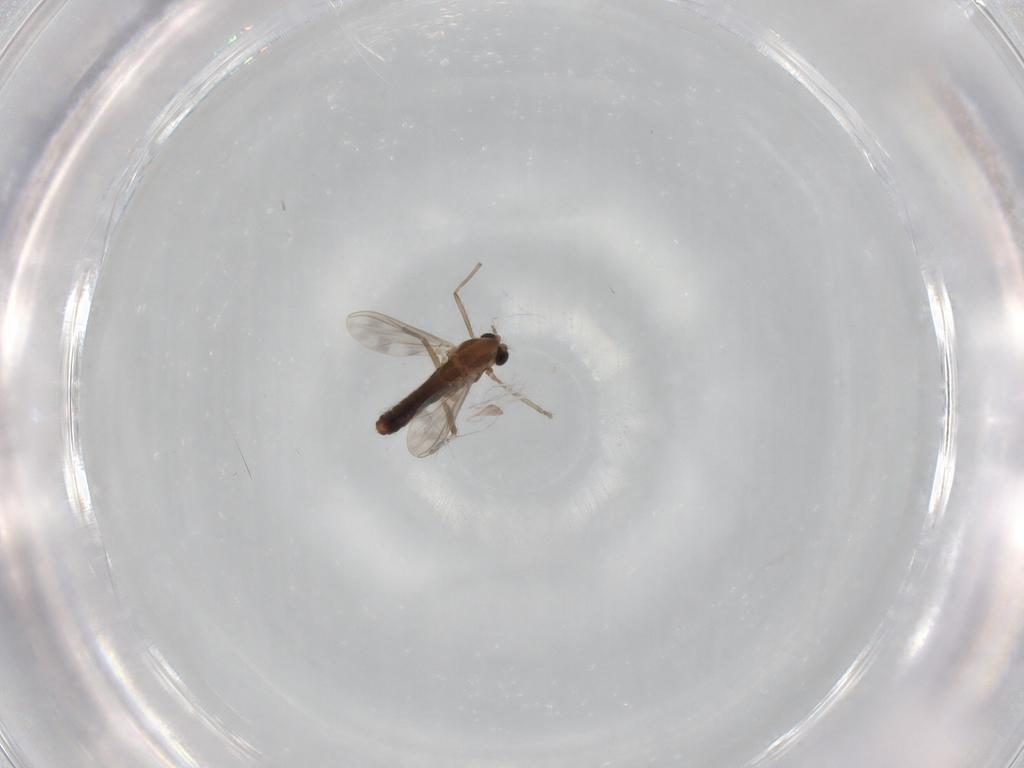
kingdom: Animalia
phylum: Arthropoda
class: Insecta
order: Diptera
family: Chironomidae
